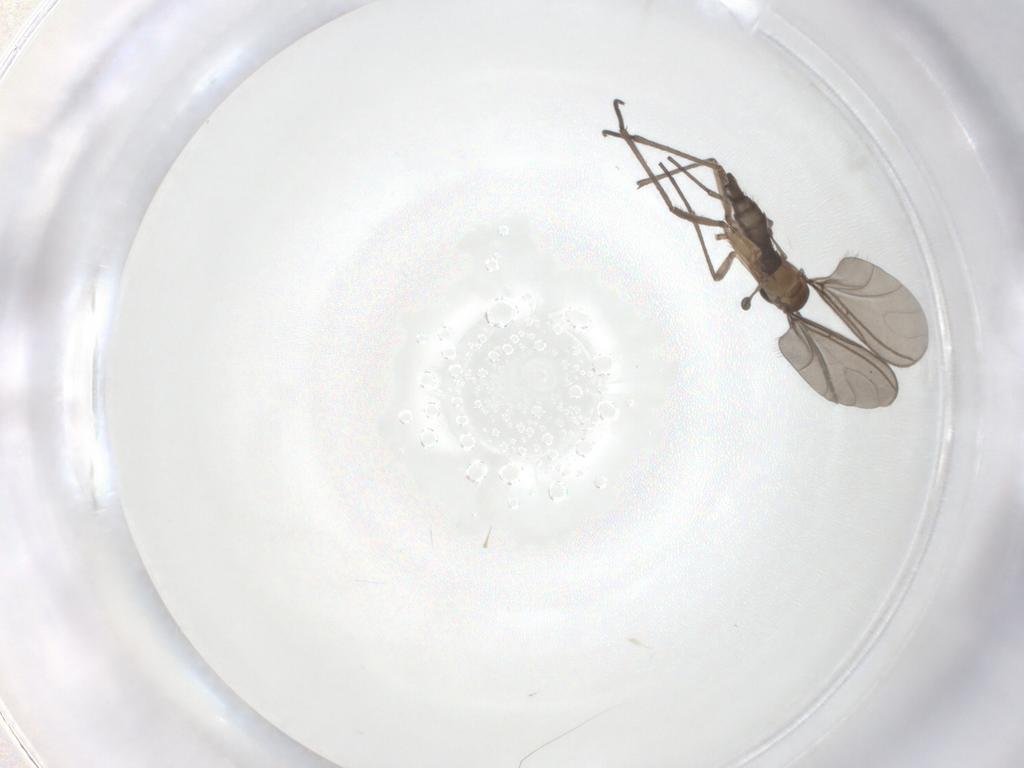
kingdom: Animalia
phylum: Arthropoda
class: Insecta
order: Diptera
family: Sciaridae
